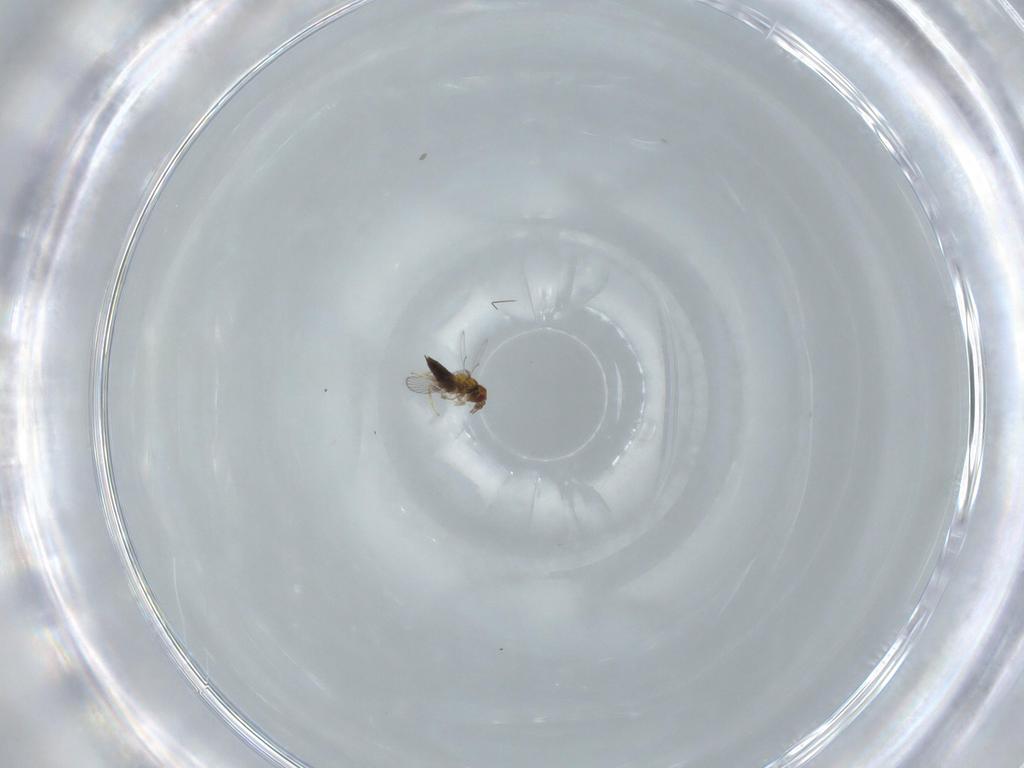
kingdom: Animalia
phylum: Arthropoda
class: Insecta
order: Hymenoptera
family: Trichogrammatidae
